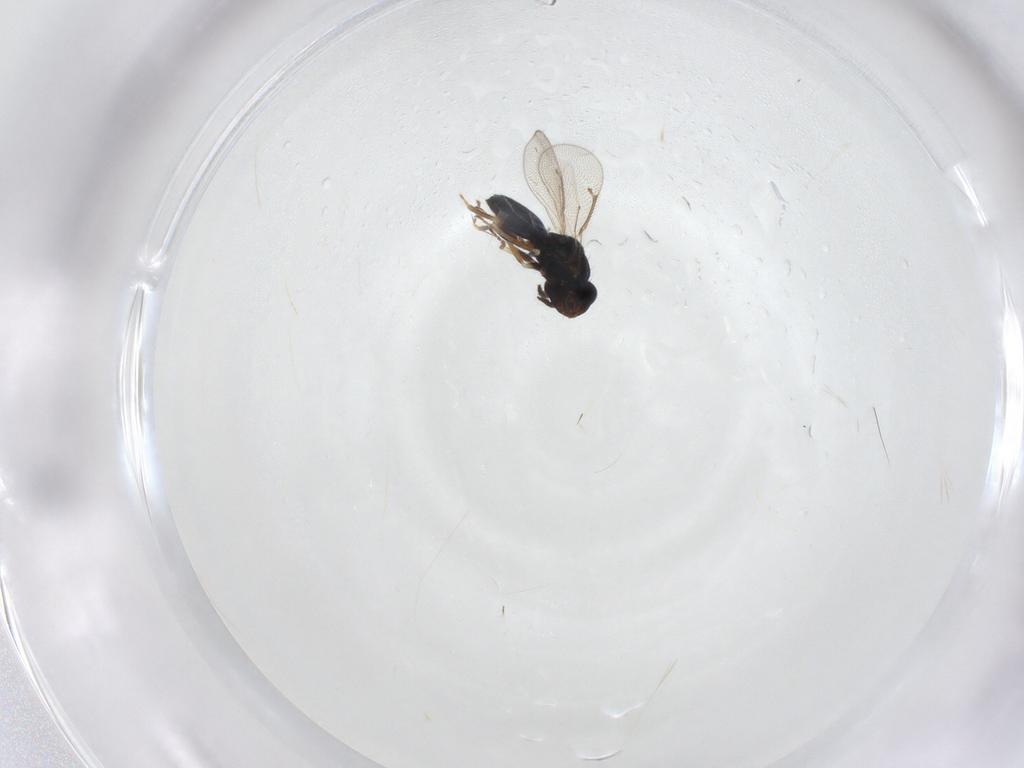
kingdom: Animalia
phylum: Arthropoda
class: Insecta
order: Hymenoptera
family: Eulophidae
